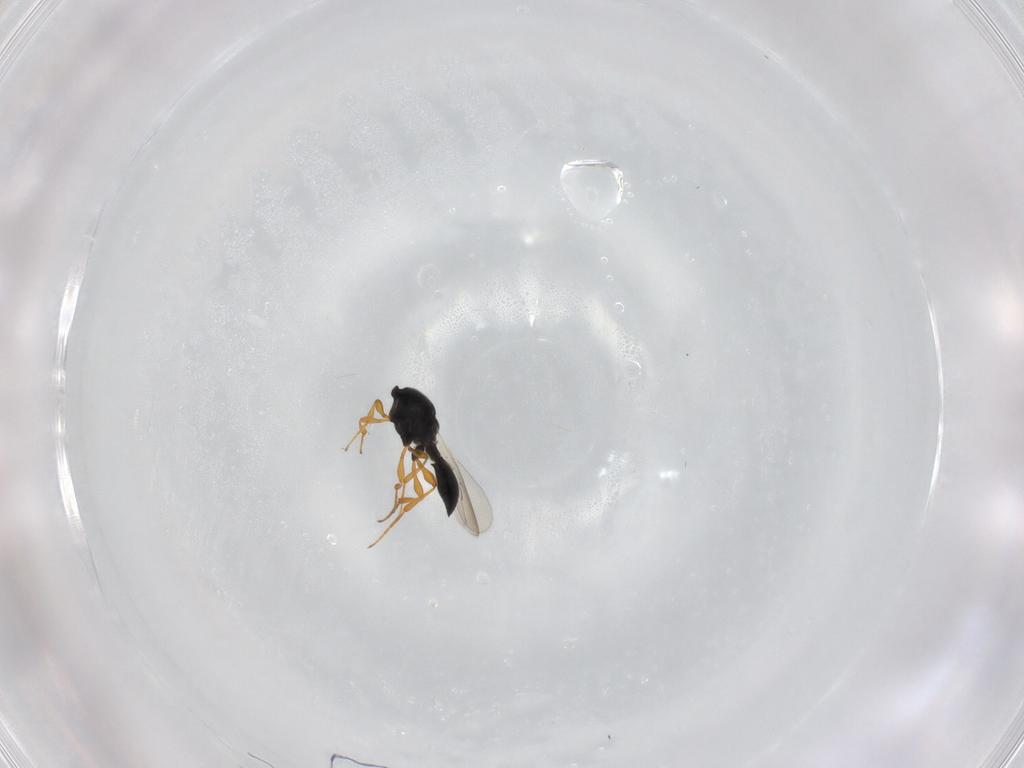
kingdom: Animalia
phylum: Arthropoda
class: Insecta
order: Hymenoptera
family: Platygastridae
